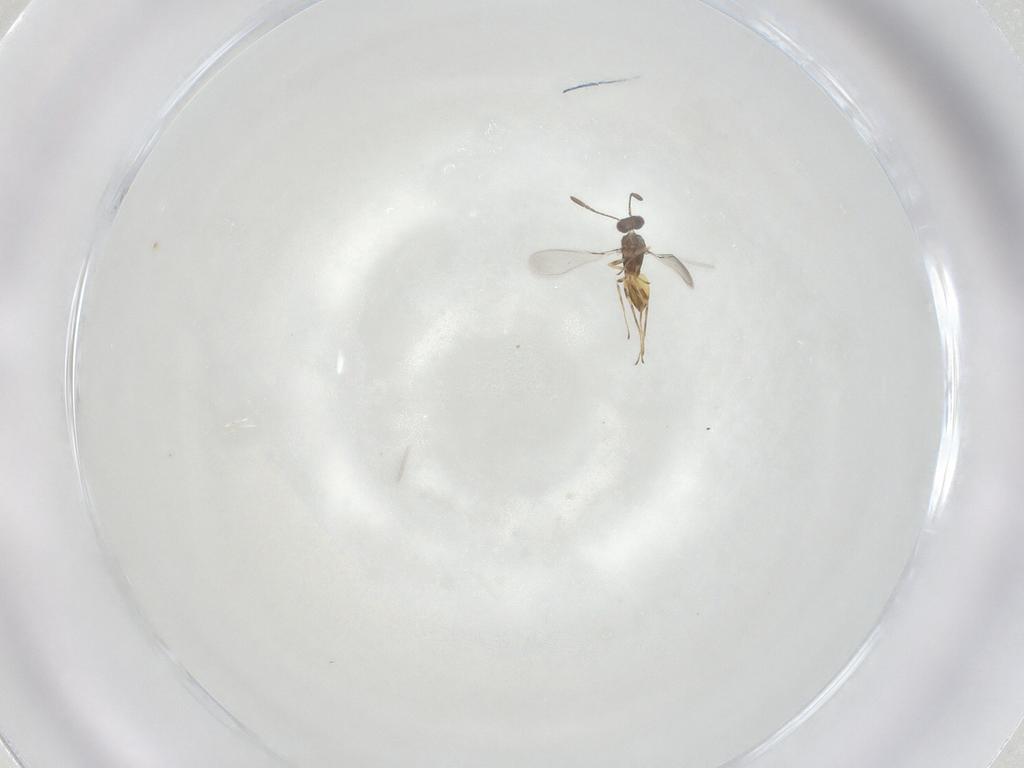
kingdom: Animalia
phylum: Arthropoda
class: Insecta
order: Hymenoptera
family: Mymaridae
